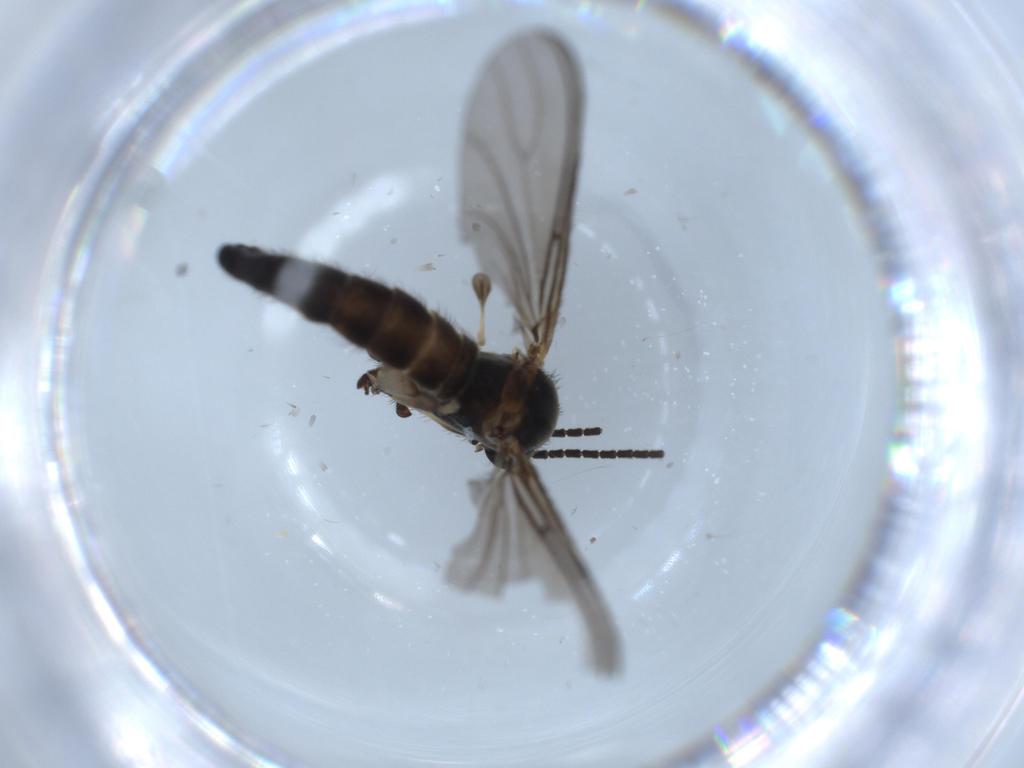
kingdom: Animalia
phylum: Arthropoda
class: Insecta
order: Diptera
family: Sciaridae
